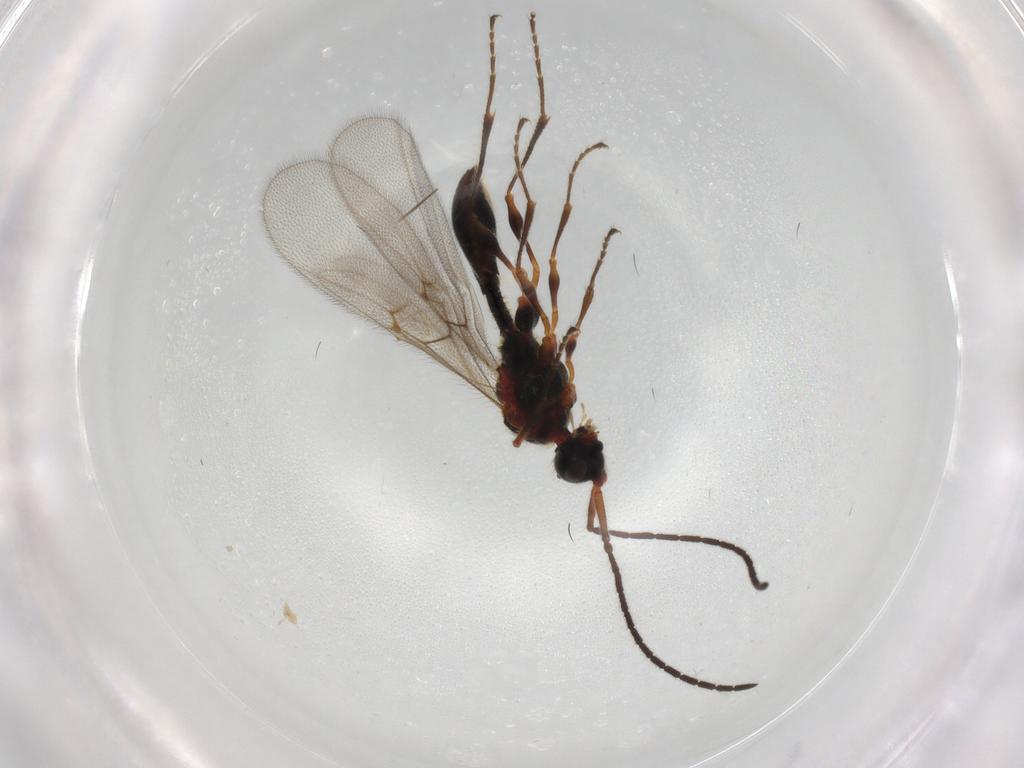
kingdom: Animalia
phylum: Arthropoda
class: Insecta
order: Hymenoptera
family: Diapriidae
